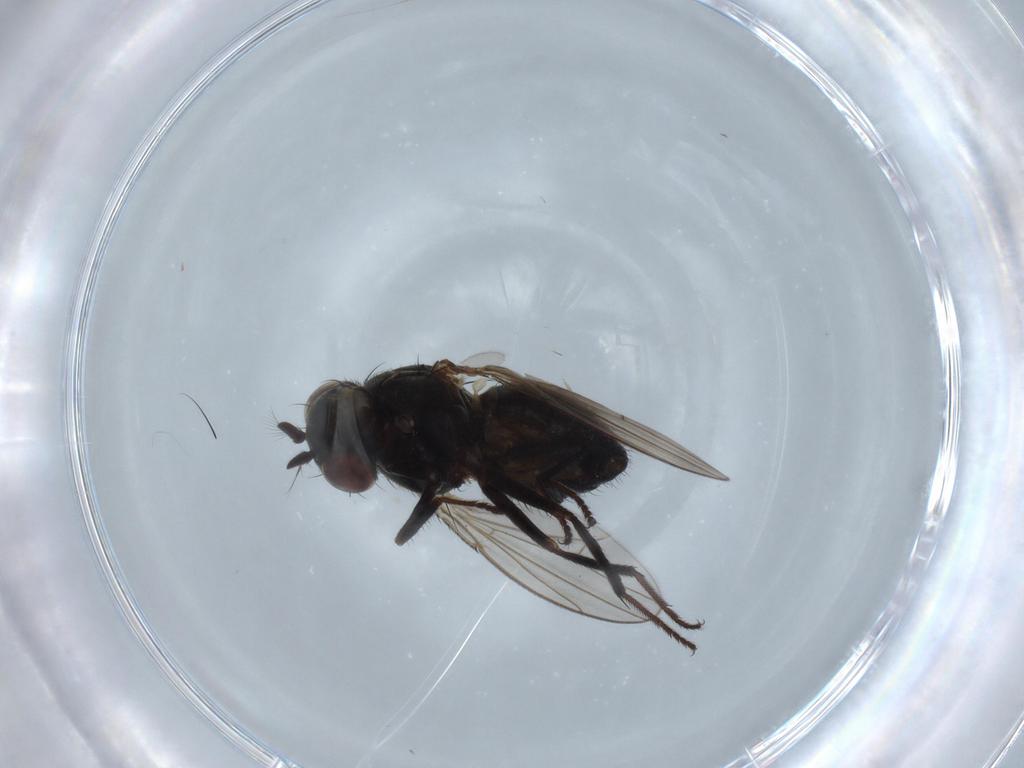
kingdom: Animalia
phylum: Arthropoda
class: Insecta
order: Diptera
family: Ephydridae
